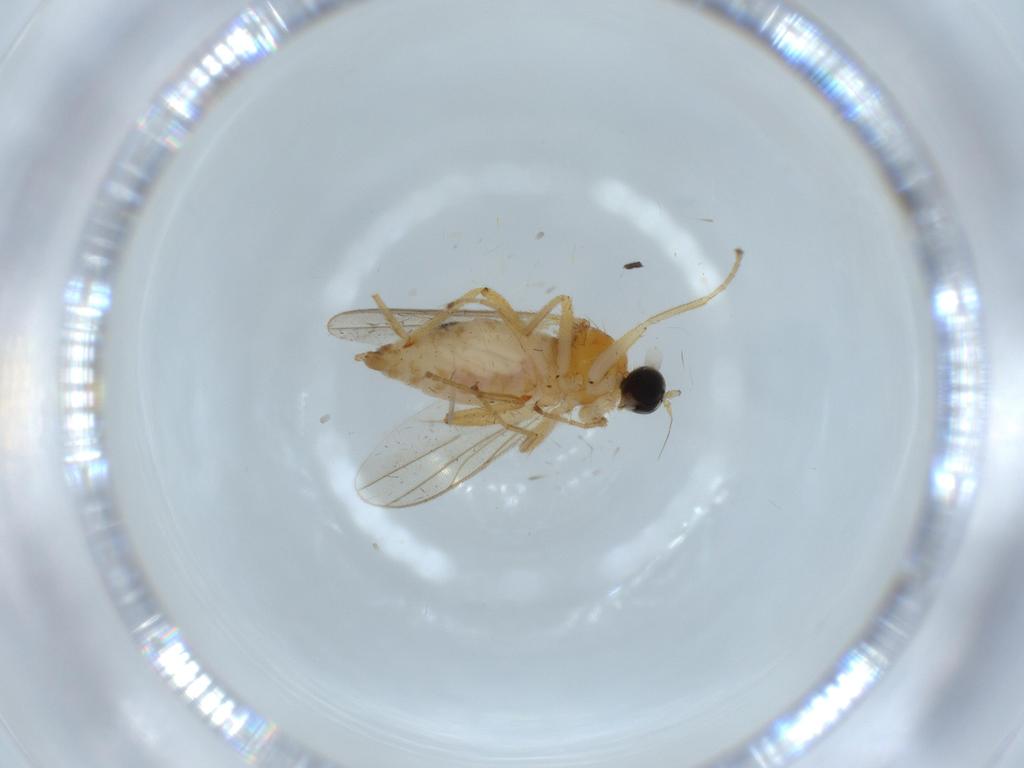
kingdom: Animalia
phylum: Arthropoda
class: Insecta
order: Diptera
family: Hybotidae
